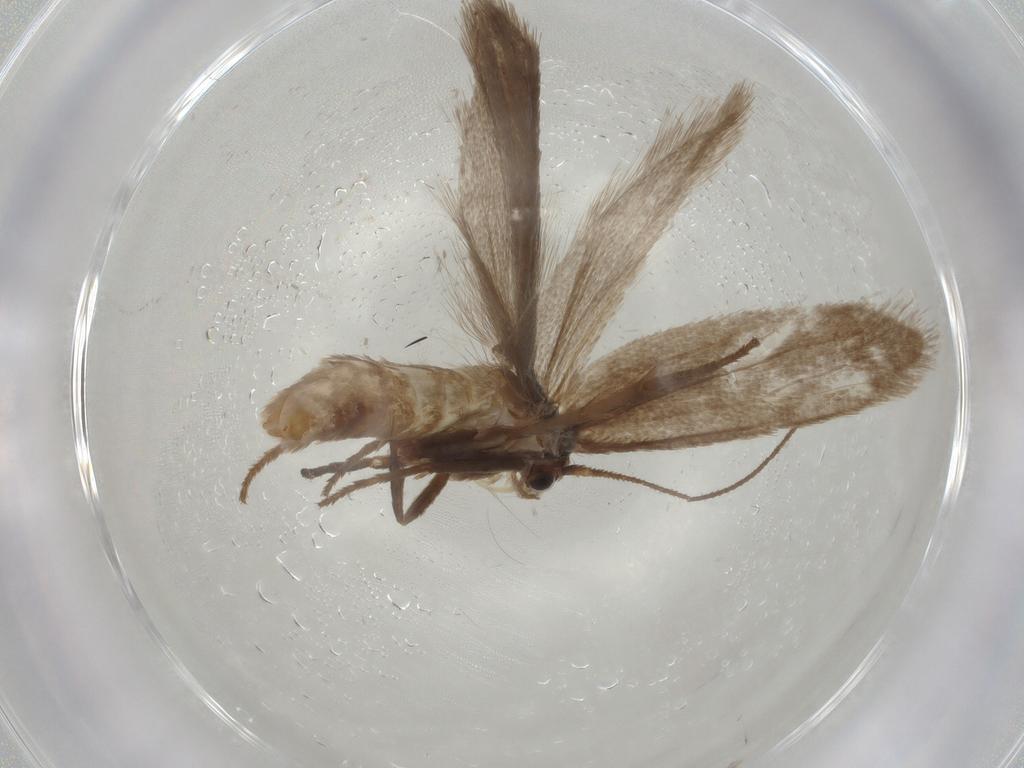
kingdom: Animalia
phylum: Arthropoda
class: Insecta
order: Lepidoptera
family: Limacodidae
